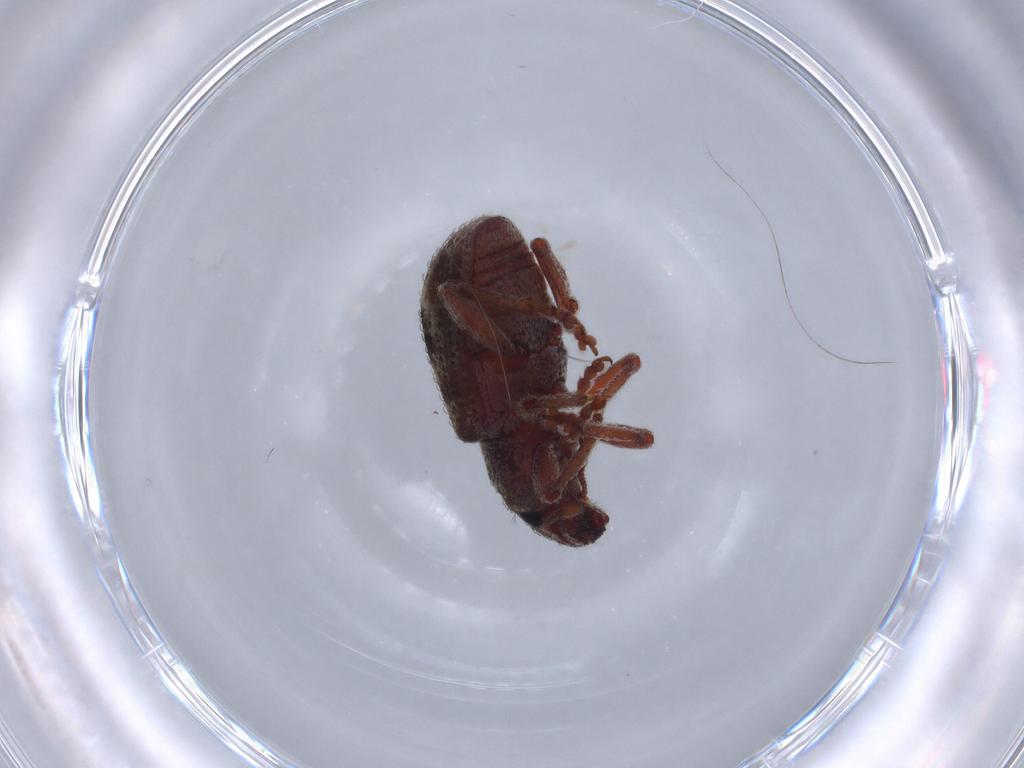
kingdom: Animalia
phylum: Arthropoda
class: Insecta
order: Coleoptera
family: Curculionidae
